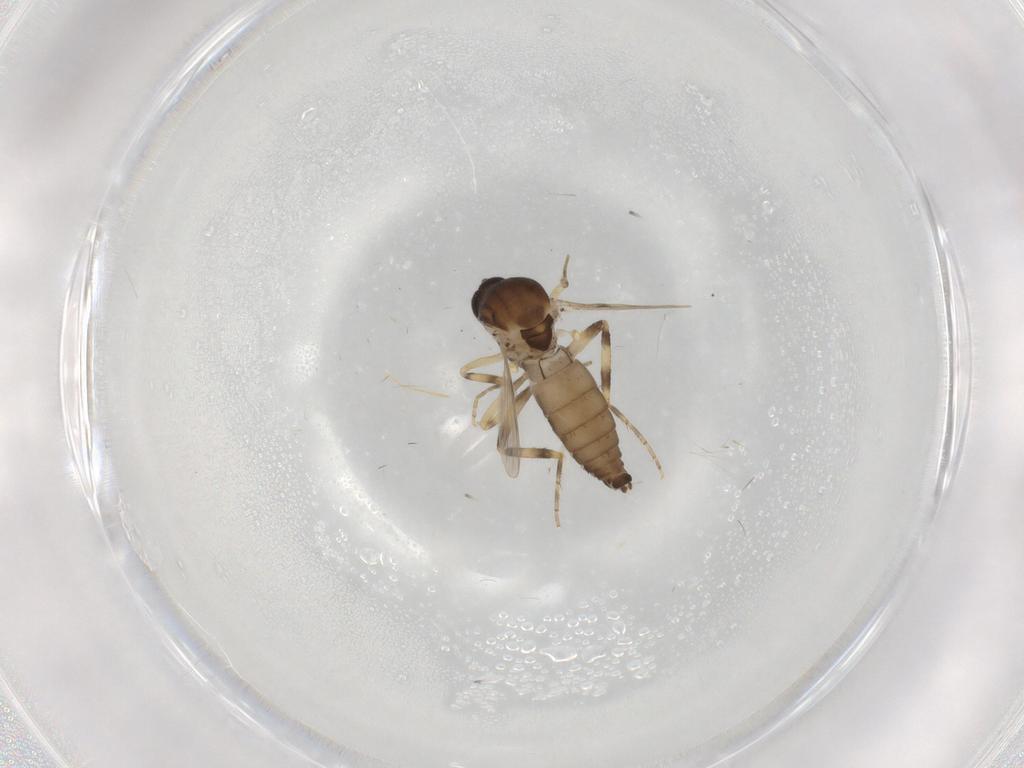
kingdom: Animalia
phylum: Arthropoda
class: Insecta
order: Diptera
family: Ceratopogonidae
